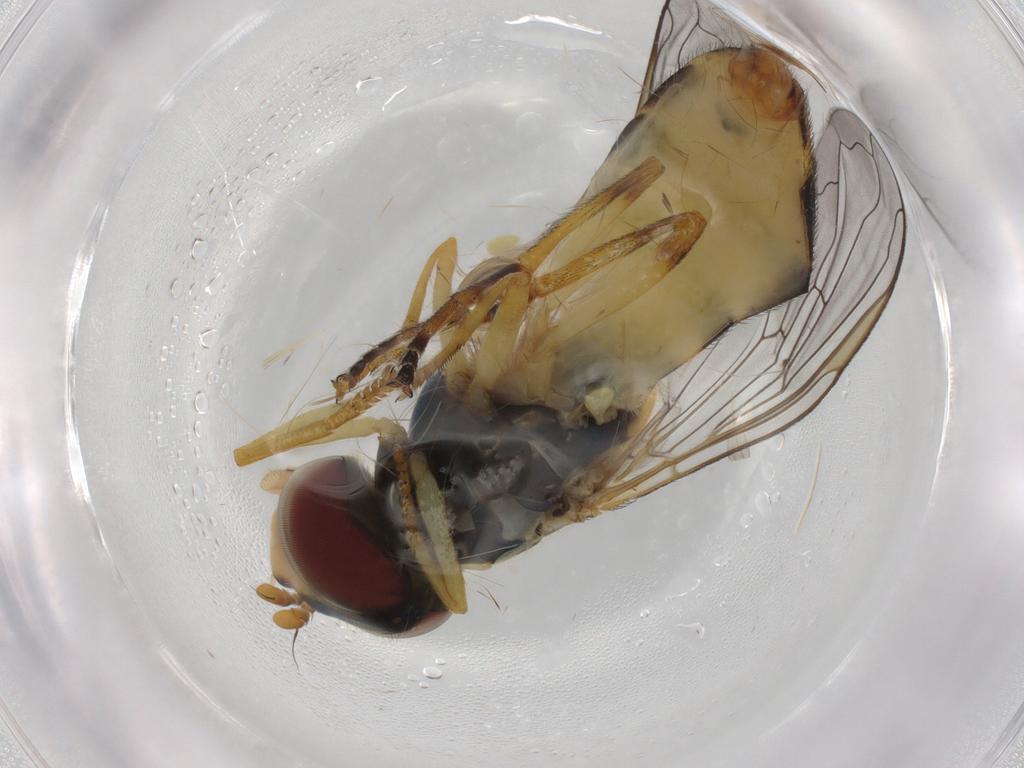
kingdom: Animalia
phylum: Arthropoda
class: Insecta
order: Diptera
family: Syrphidae
